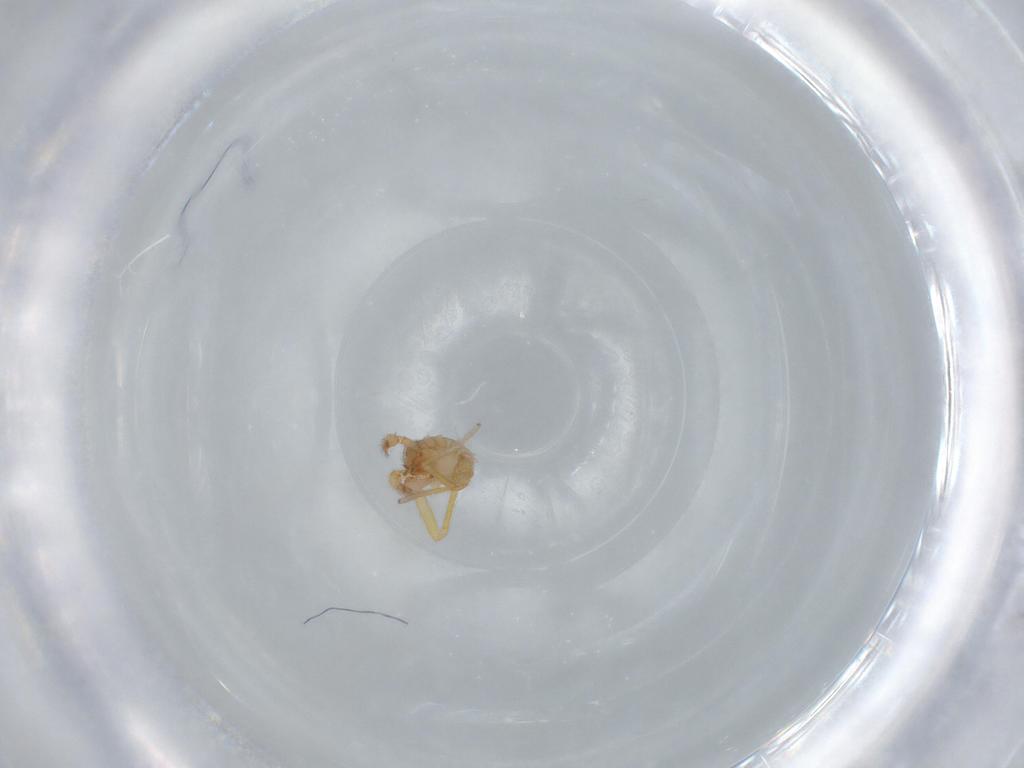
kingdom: Animalia
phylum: Arthropoda
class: Arachnida
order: Araneae
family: Oonopidae
